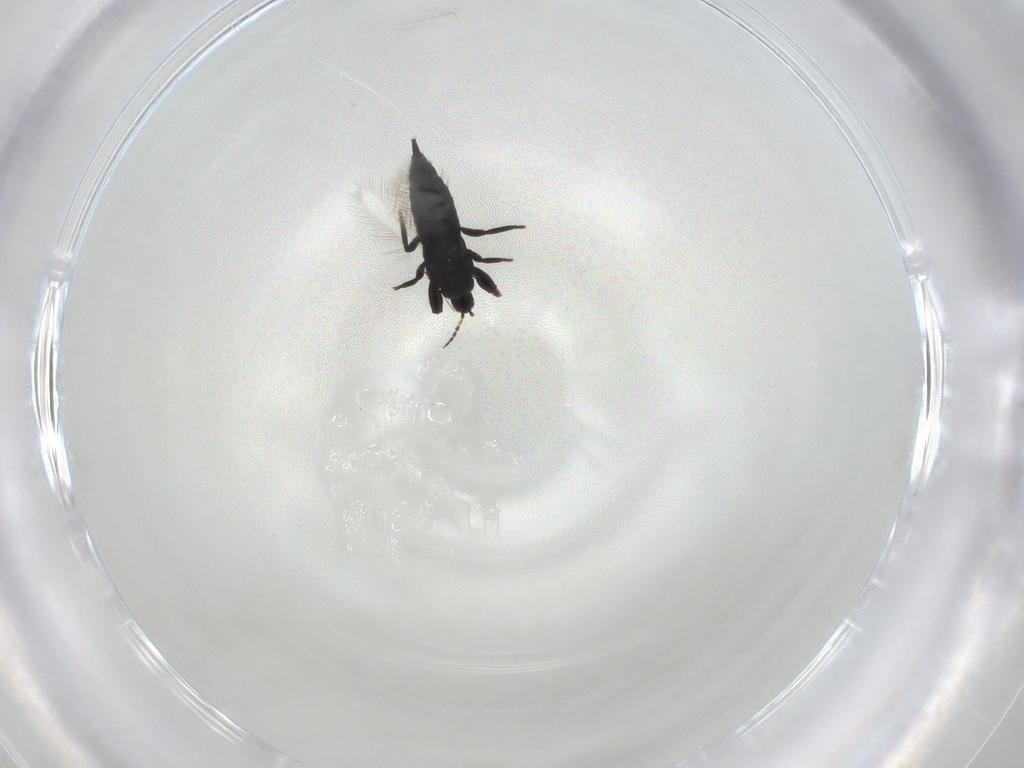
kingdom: Animalia
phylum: Arthropoda
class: Insecta
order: Thysanoptera
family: Phlaeothripidae
